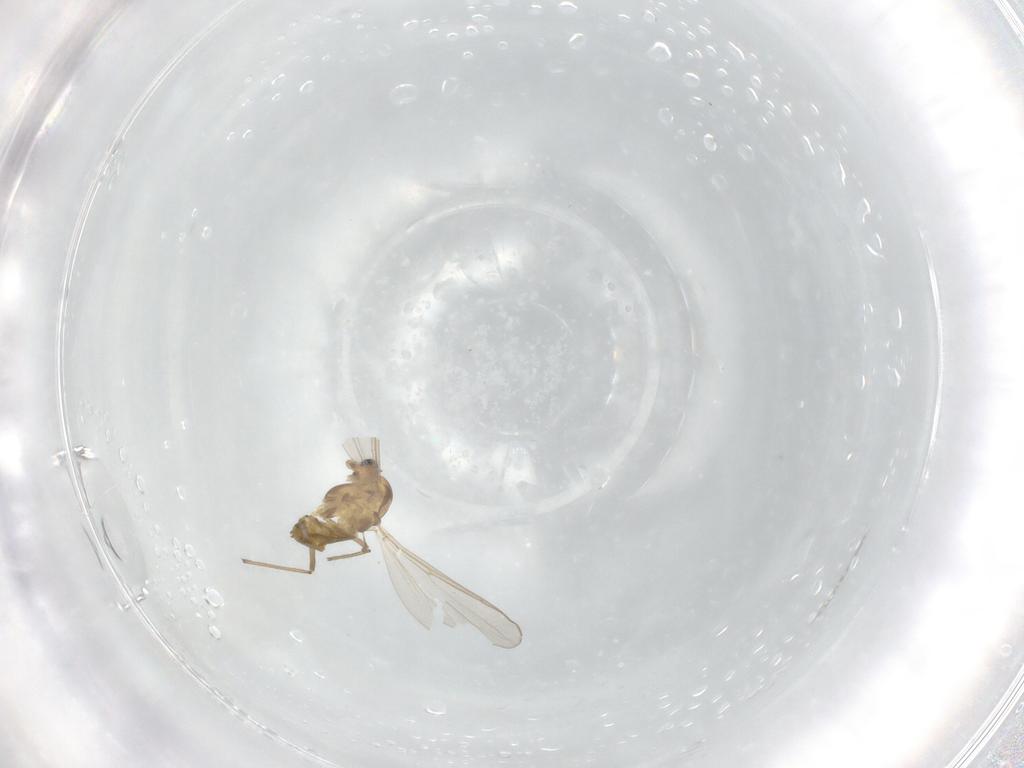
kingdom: Animalia
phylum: Arthropoda
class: Insecta
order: Diptera
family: Chironomidae
